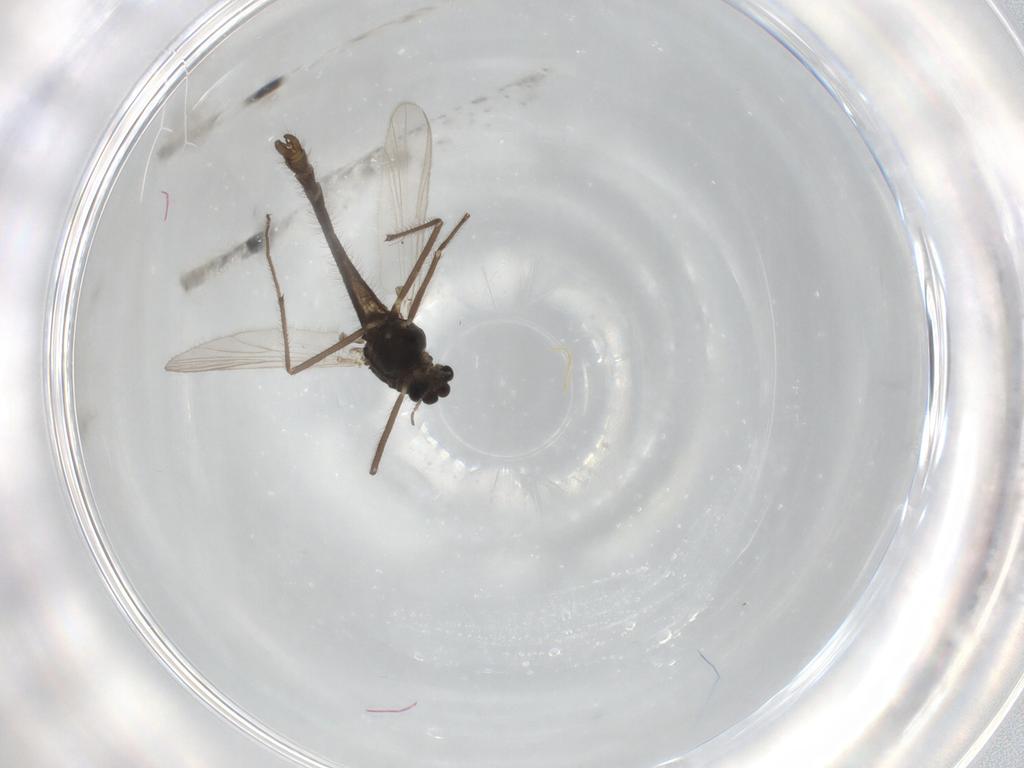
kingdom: Animalia
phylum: Arthropoda
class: Insecta
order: Diptera
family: Chironomidae
